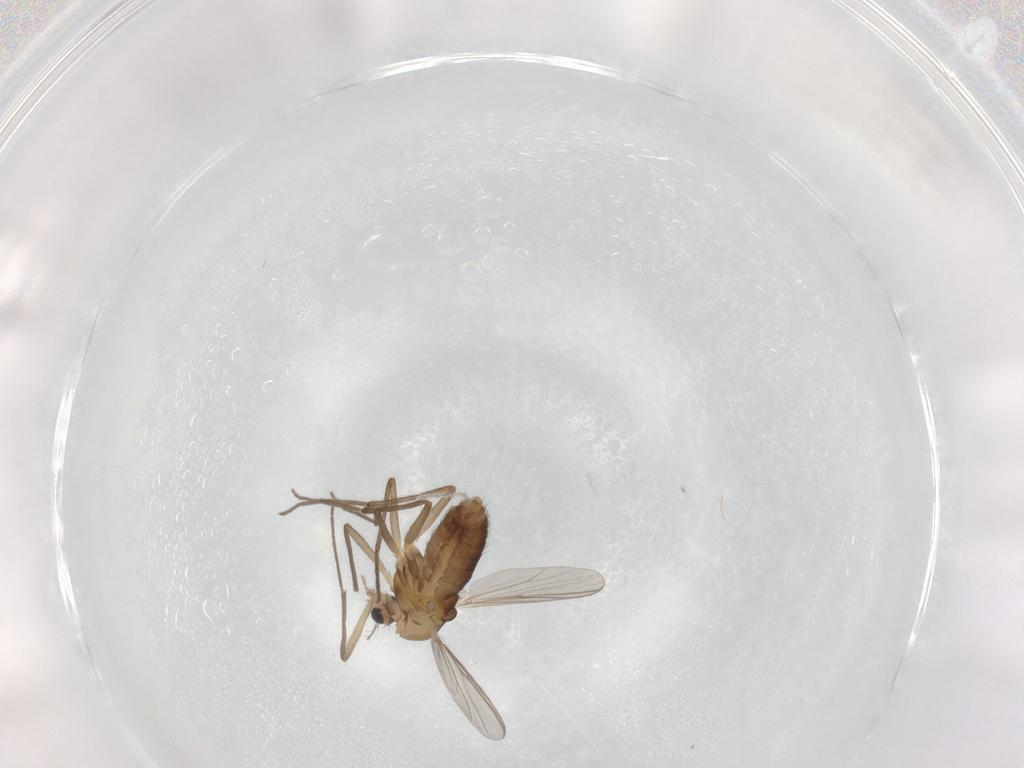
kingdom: Animalia
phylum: Arthropoda
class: Insecta
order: Diptera
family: Chironomidae
